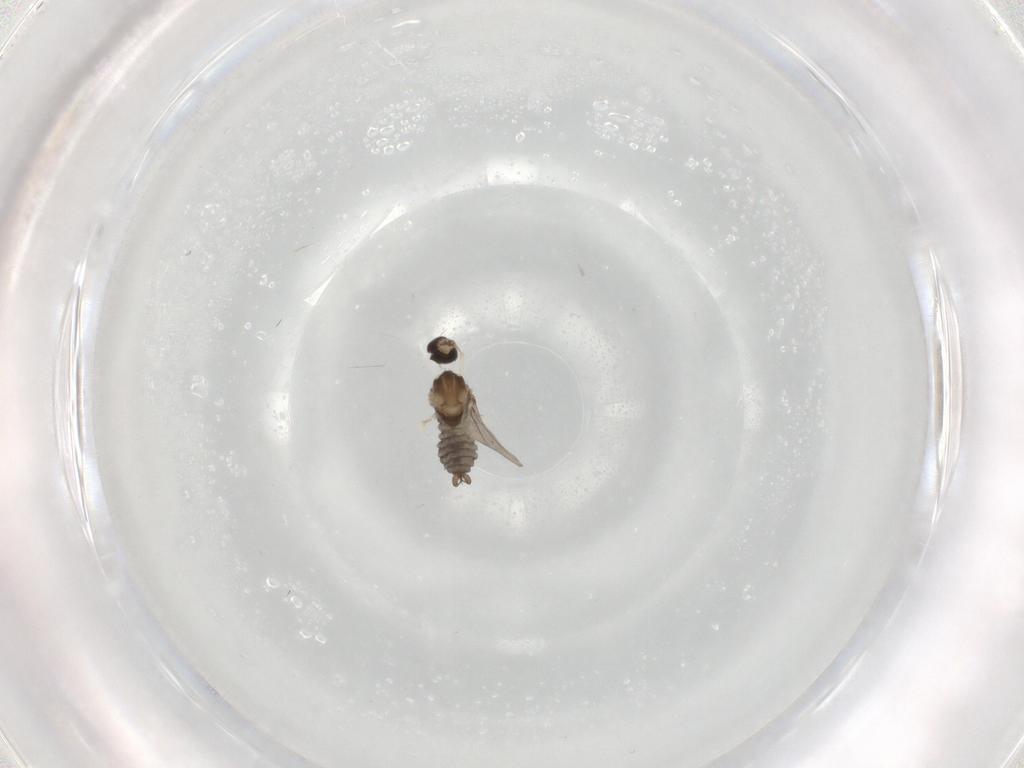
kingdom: Animalia
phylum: Arthropoda
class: Insecta
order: Diptera
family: Cecidomyiidae
